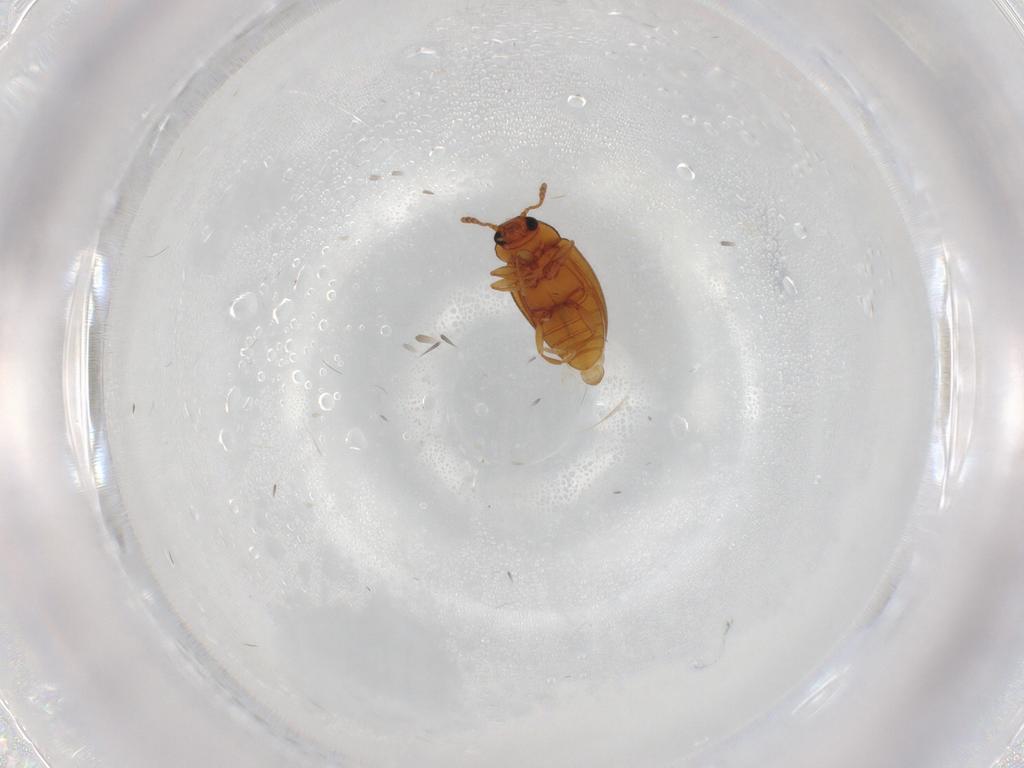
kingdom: Animalia
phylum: Arthropoda
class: Insecta
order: Coleoptera
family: Erotylidae
